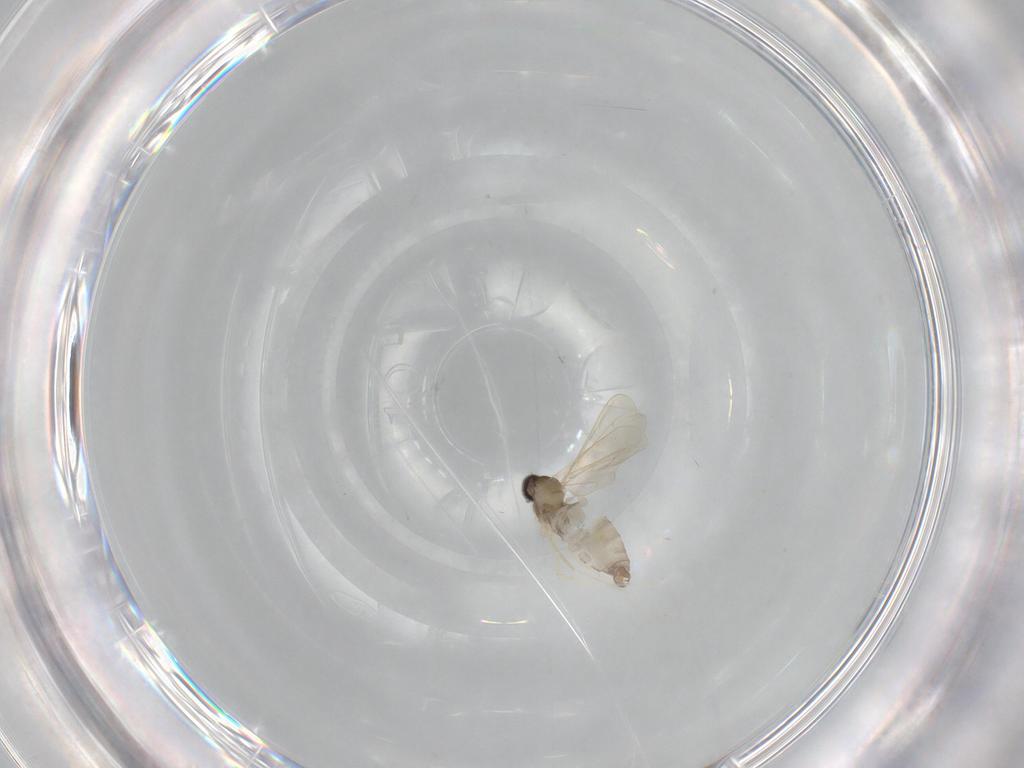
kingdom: Animalia
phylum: Arthropoda
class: Insecta
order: Diptera
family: Cecidomyiidae
